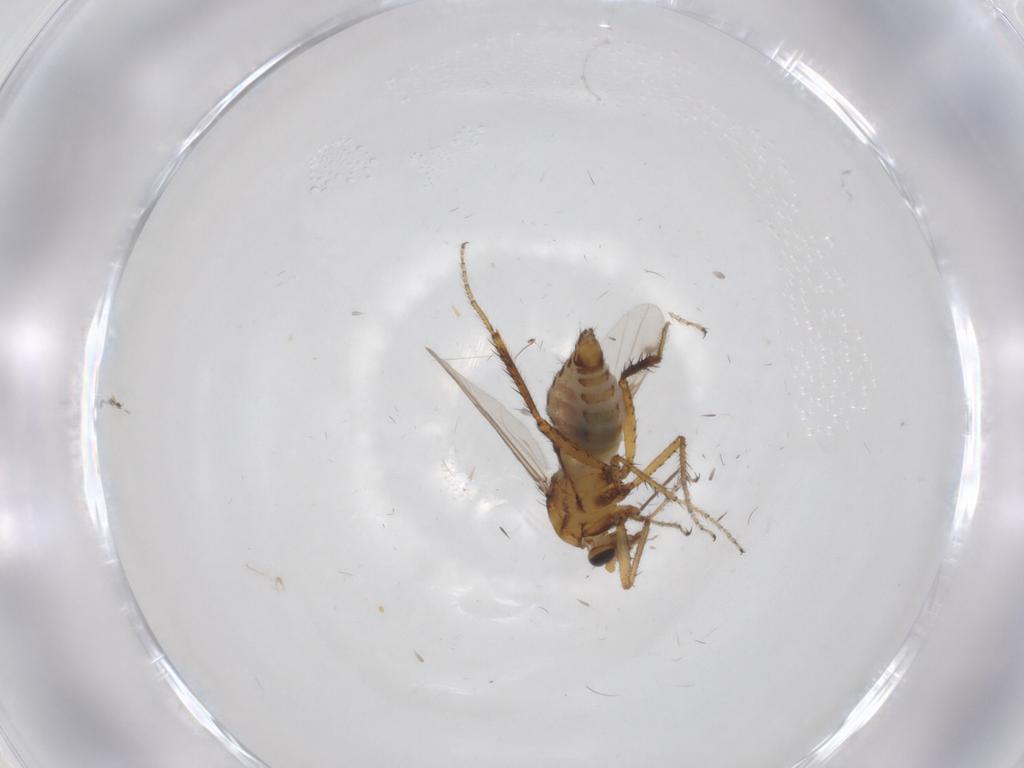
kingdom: Animalia
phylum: Arthropoda
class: Insecta
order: Diptera
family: Ceratopogonidae
